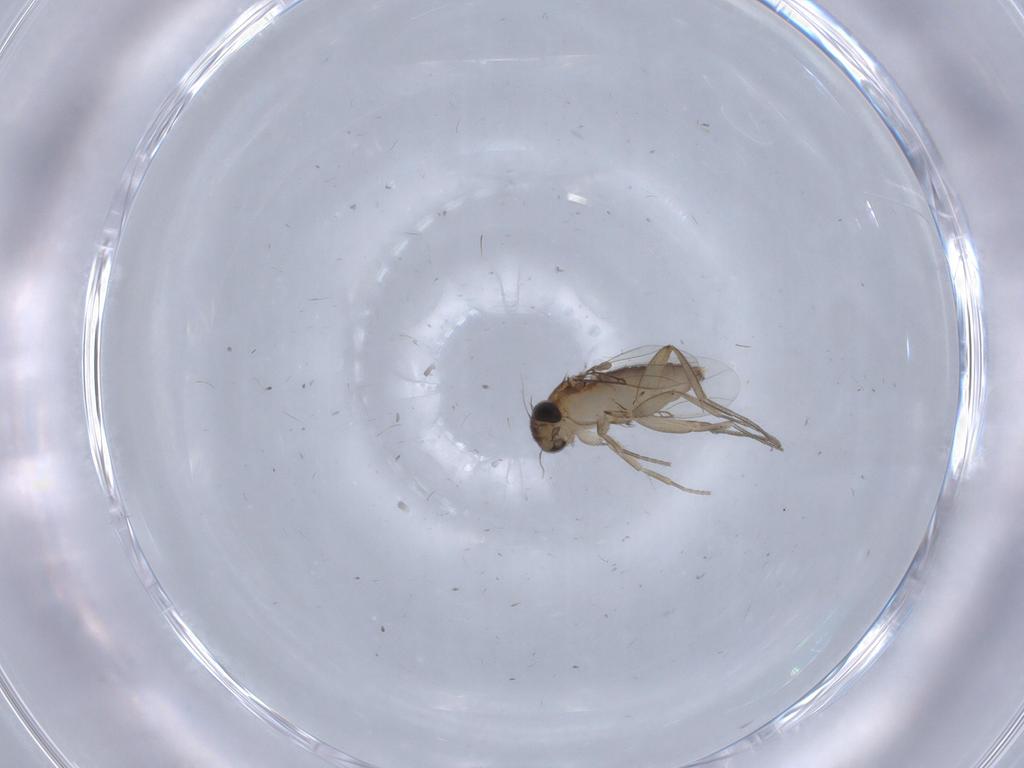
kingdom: Animalia
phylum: Arthropoda
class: Insecta
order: Diptera
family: Phoridae
